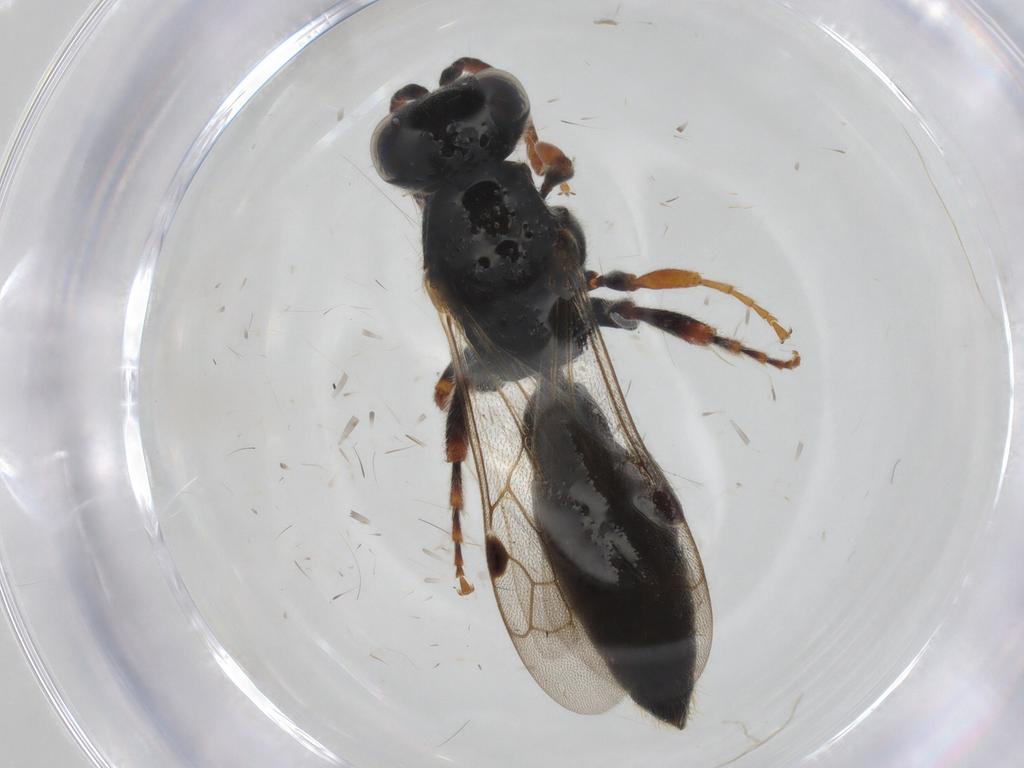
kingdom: Animalia
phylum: Arthropoda
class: Insecta
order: Hymenoptera
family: Tiphiidae
